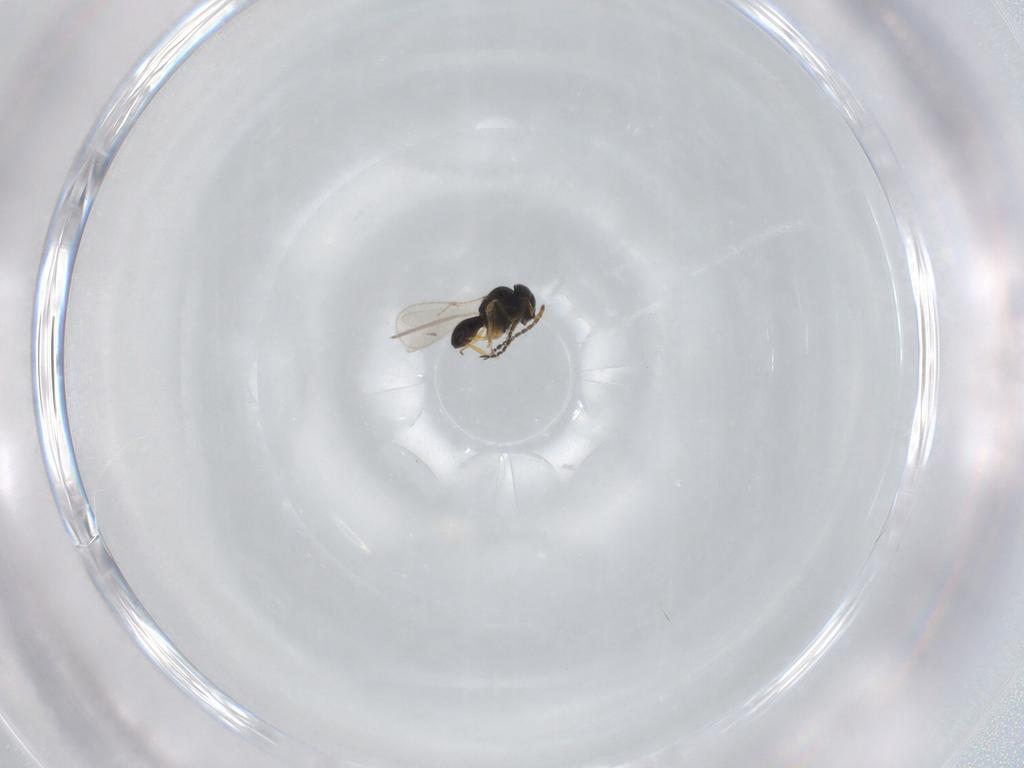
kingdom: Animalia
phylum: Arthropoda
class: Insecta
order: Hymenoptera
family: Scelionidae
